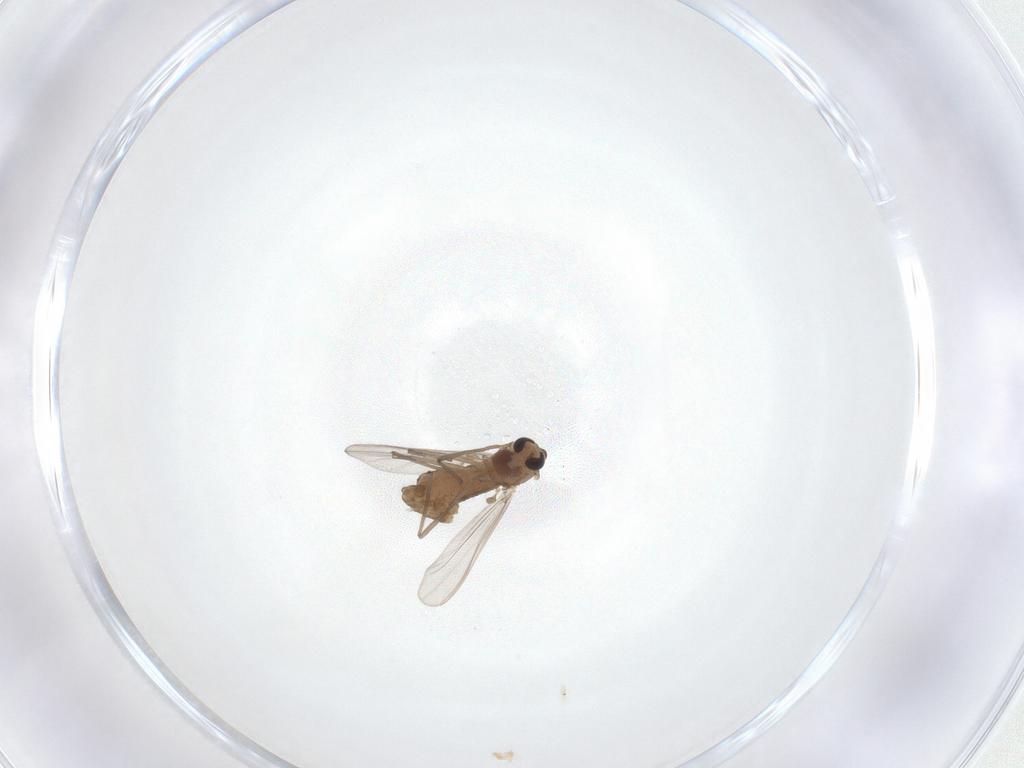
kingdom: Animalia
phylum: Arthropoda
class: Insecta
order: Diptera
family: Chironomidae
